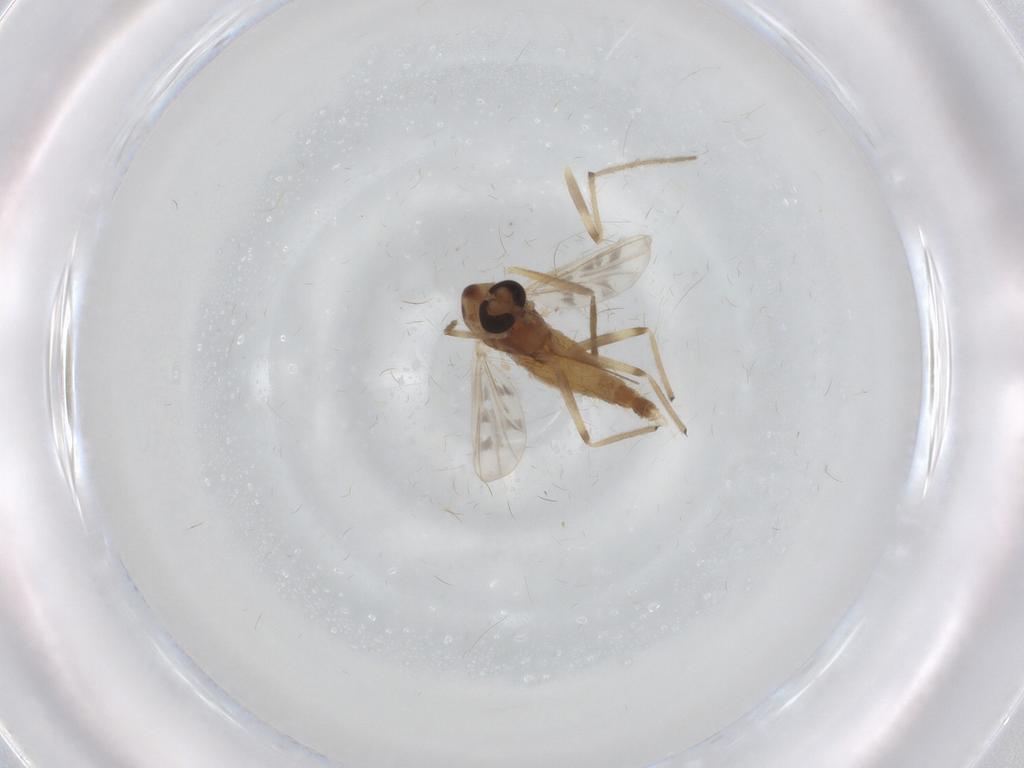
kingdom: Animalia
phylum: Arthropoda
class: Insecta
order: Diptera
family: Chironomidae
